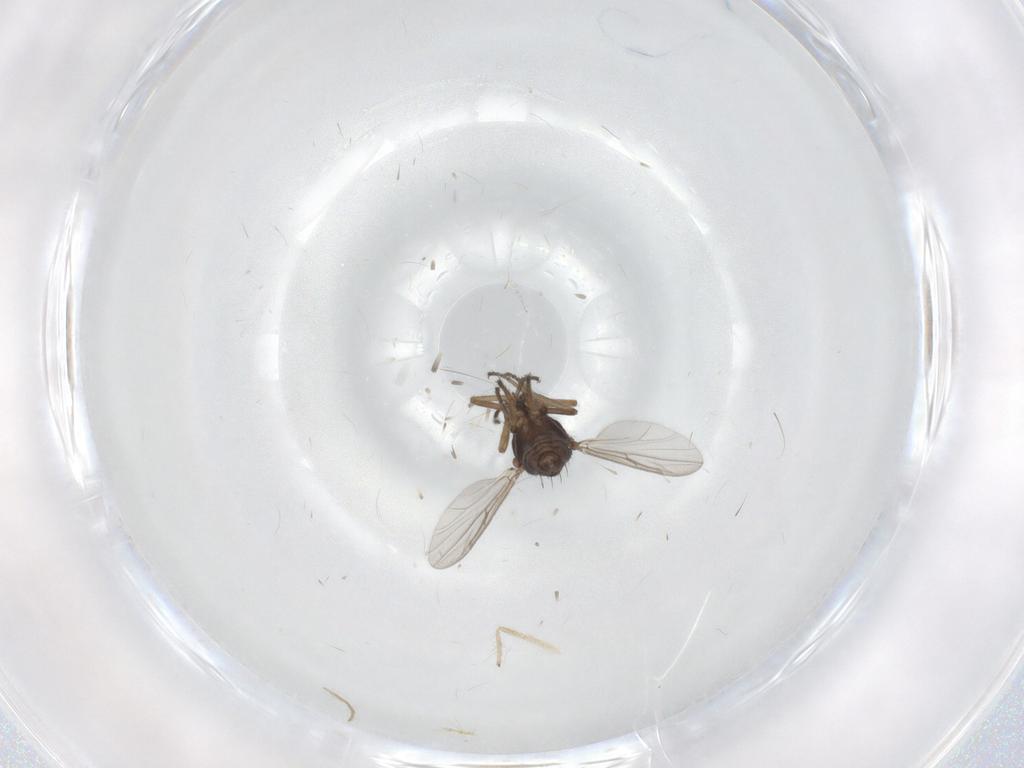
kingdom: Animalia
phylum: Arthropoda
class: Insecta
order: Diptera
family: Ceratopogonidae
